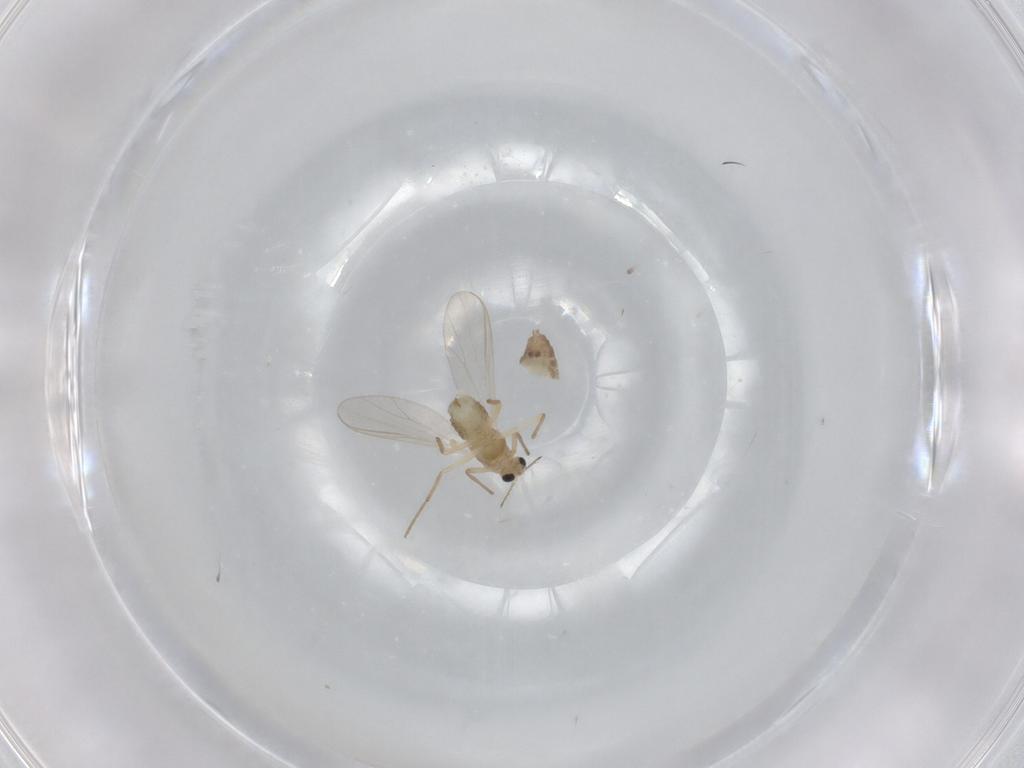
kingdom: Animalia
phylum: Arthropoda
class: Insecta
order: Diptera
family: Chironomidae
